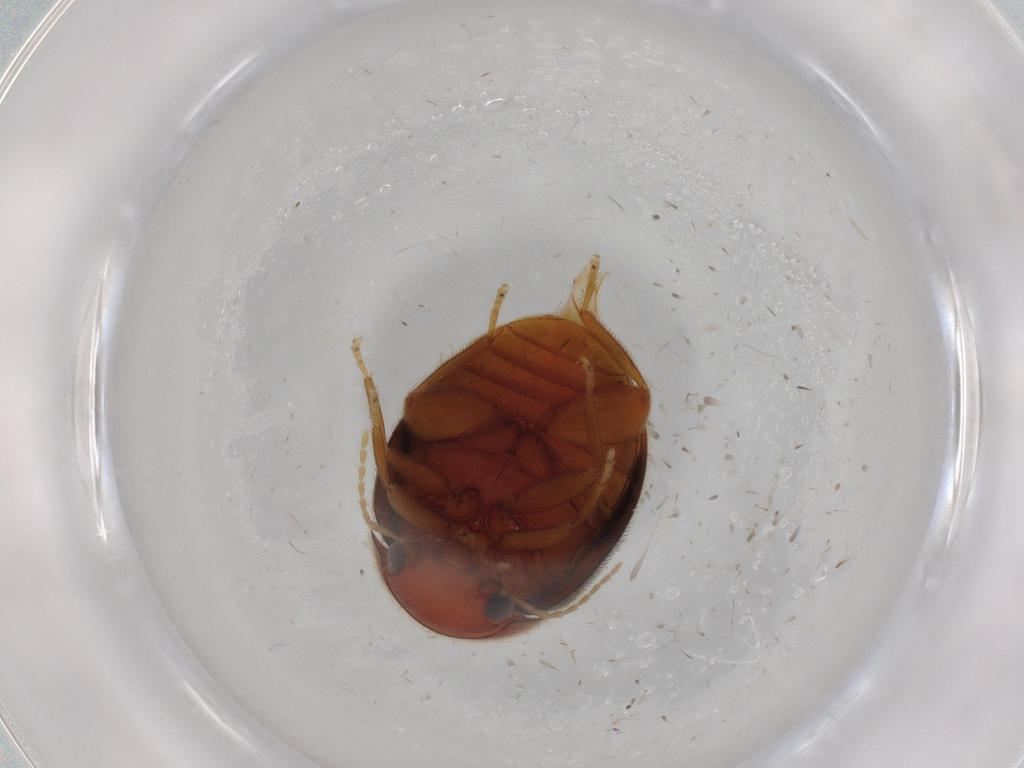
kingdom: Animalia
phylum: Arthropoda
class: Insecta
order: Coleoptera
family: Scirtidae
